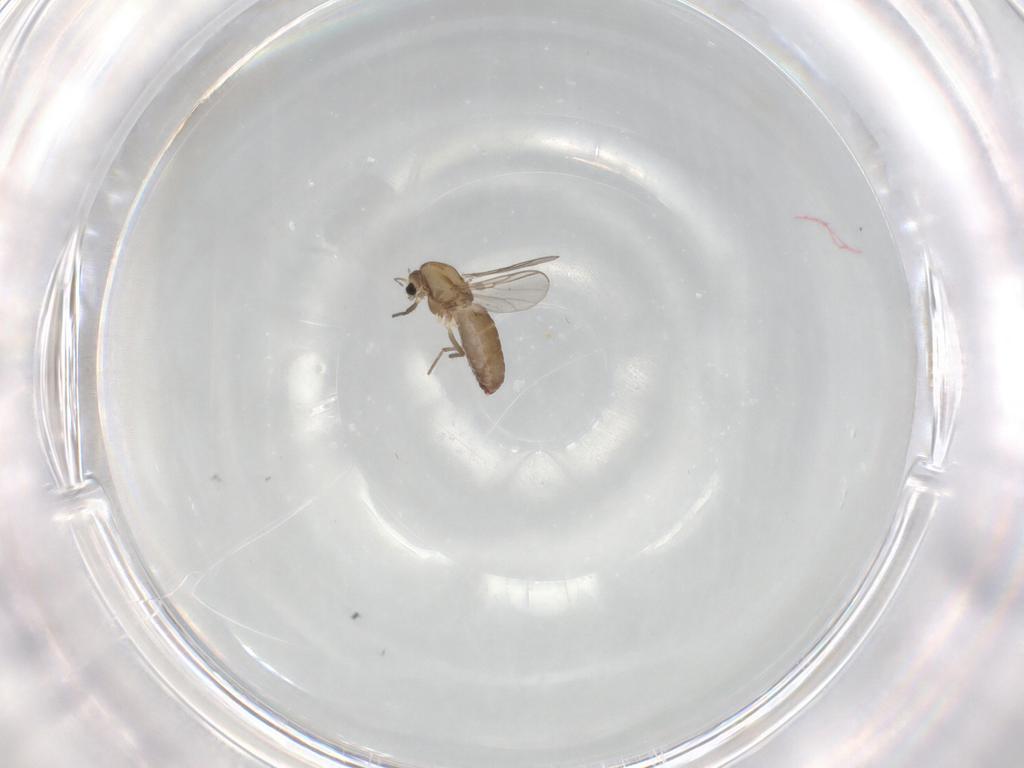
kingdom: Animalia
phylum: Arthropoda
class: Insecta
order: Diptera
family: Chironomidae
